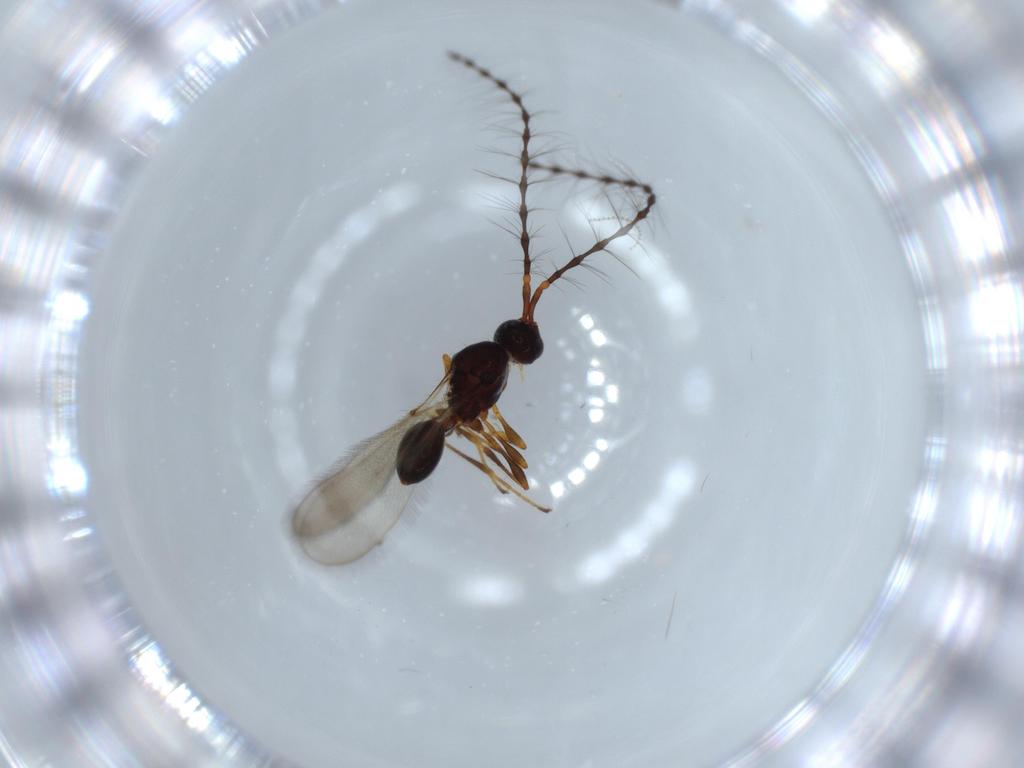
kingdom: Animalia
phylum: Arthropoda
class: Insecta
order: Hymenoptera
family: Diapriidae
